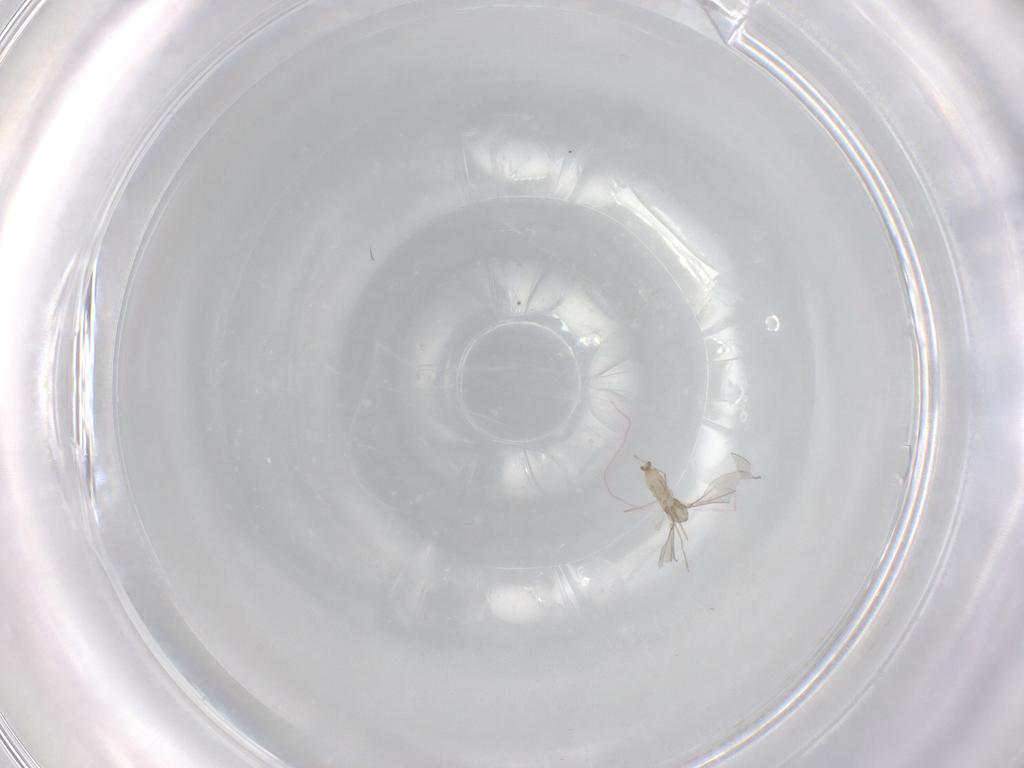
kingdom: Animalia
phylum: Arthropoda
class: Insecta
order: Diptera
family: Cecidomyiidae
